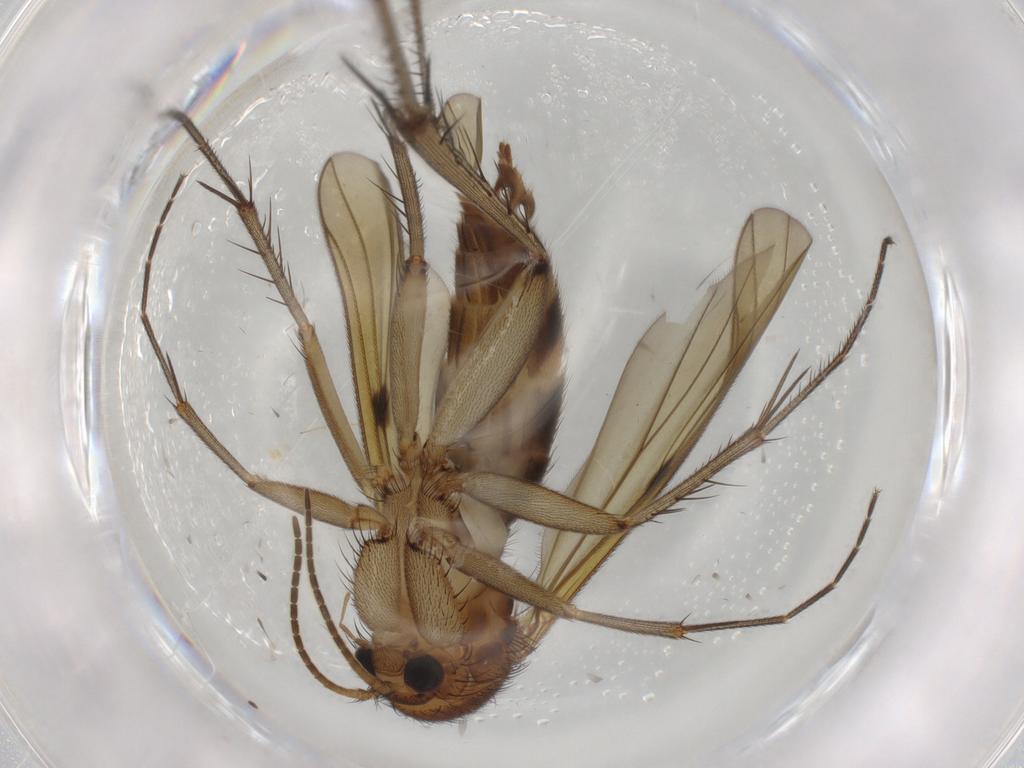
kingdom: Animalia
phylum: Arthropoda
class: Insecta
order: Diptera
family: Mycetophilidae
